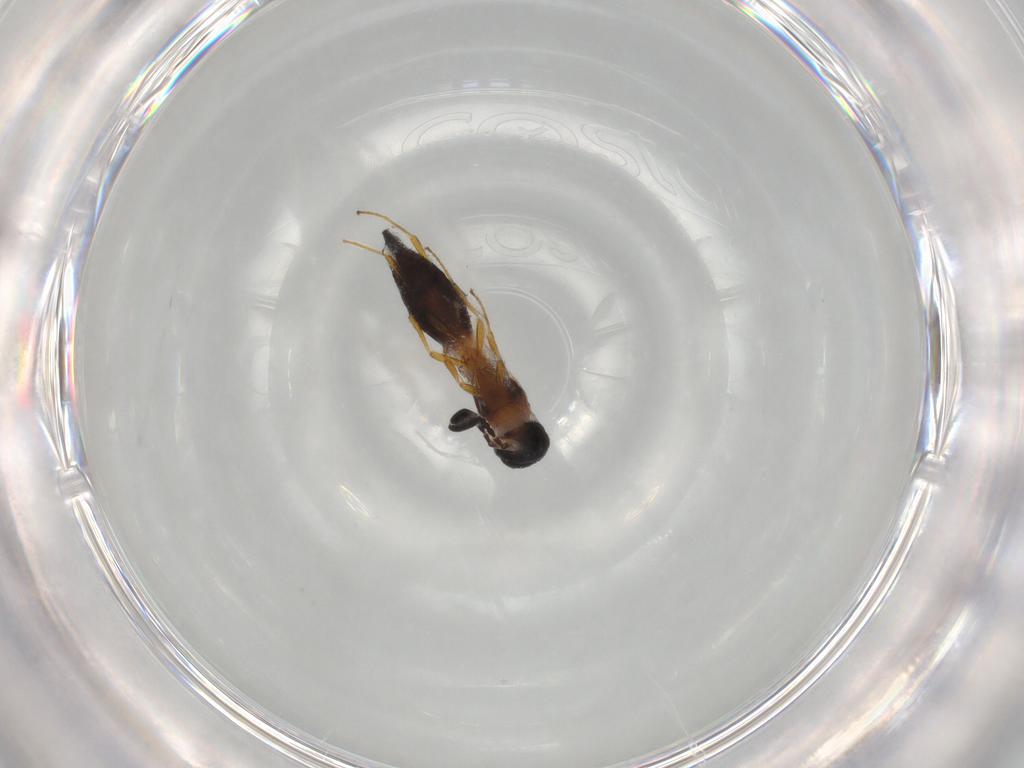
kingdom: Animalia
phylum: Arthropoda
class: Insecta
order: Hymenoptera
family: Scelionidae
